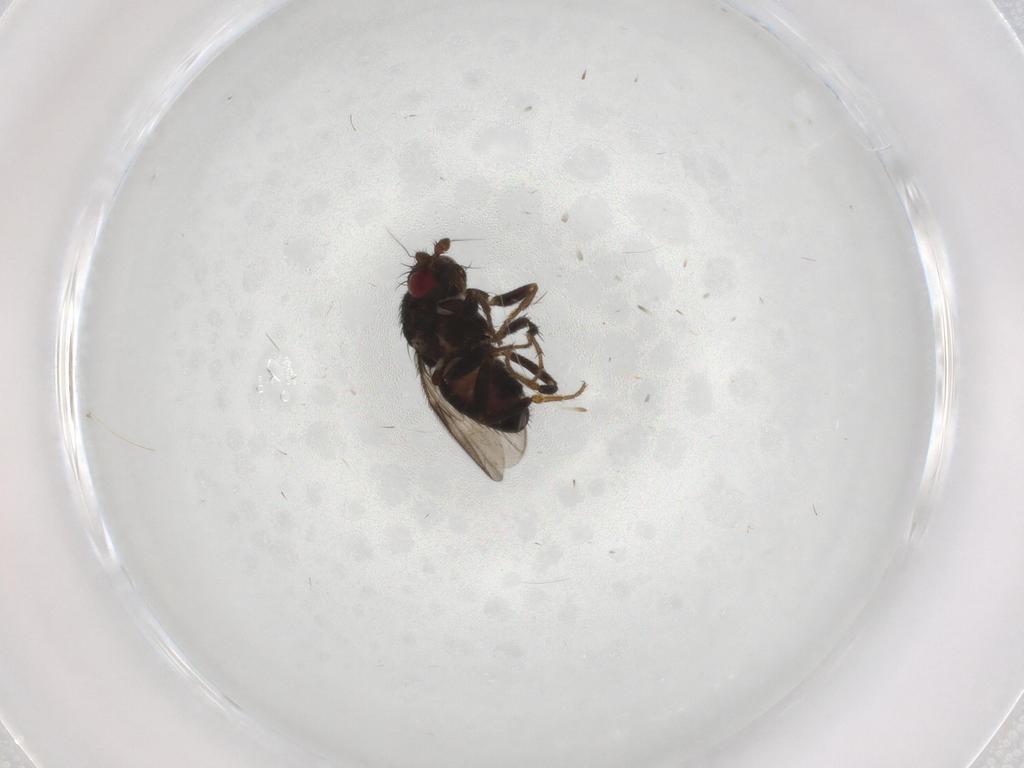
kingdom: Animalia
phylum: Arthropoda
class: Insecta
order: Diptera
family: Sphaeroceridae
